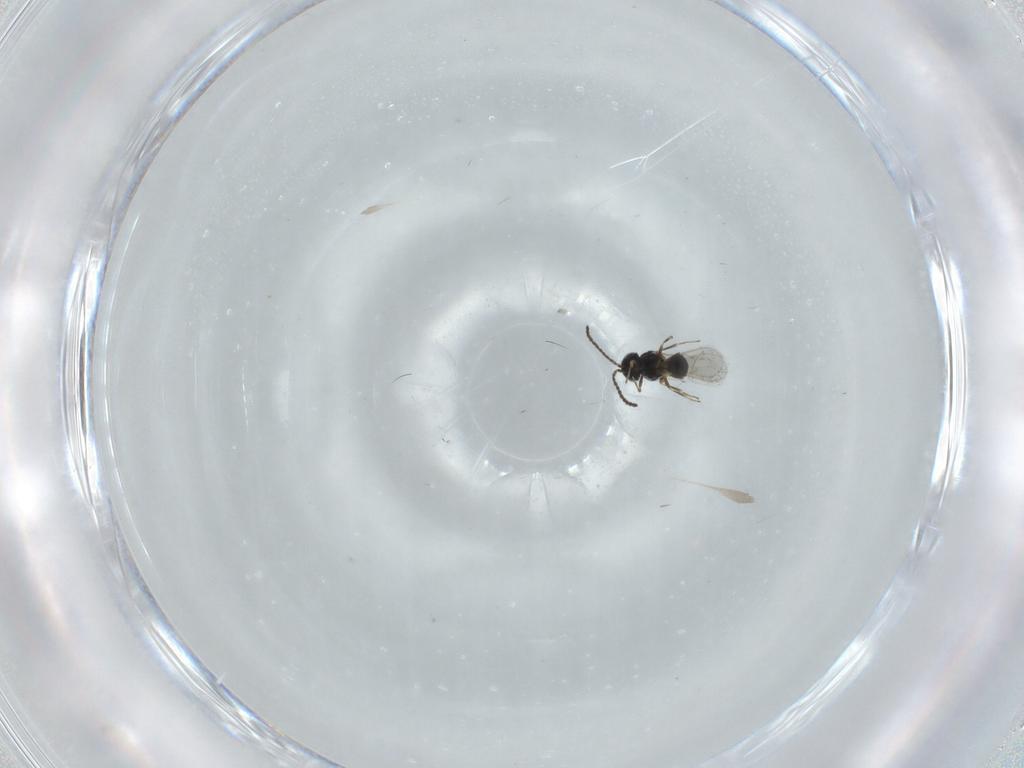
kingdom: Animalia
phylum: Arthropoda
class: Insecta
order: Hymenoptera
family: Scelionidae
